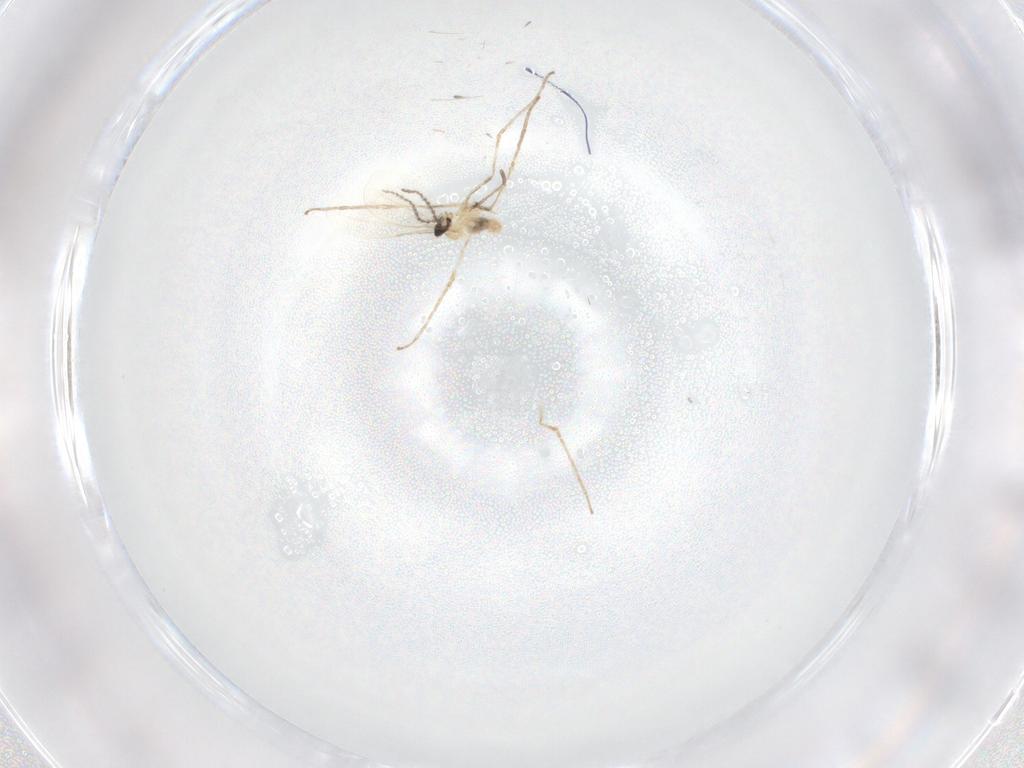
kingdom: Animalia
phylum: Arthropoda
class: Insecta
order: Diptera
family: Cecidomyiidae
